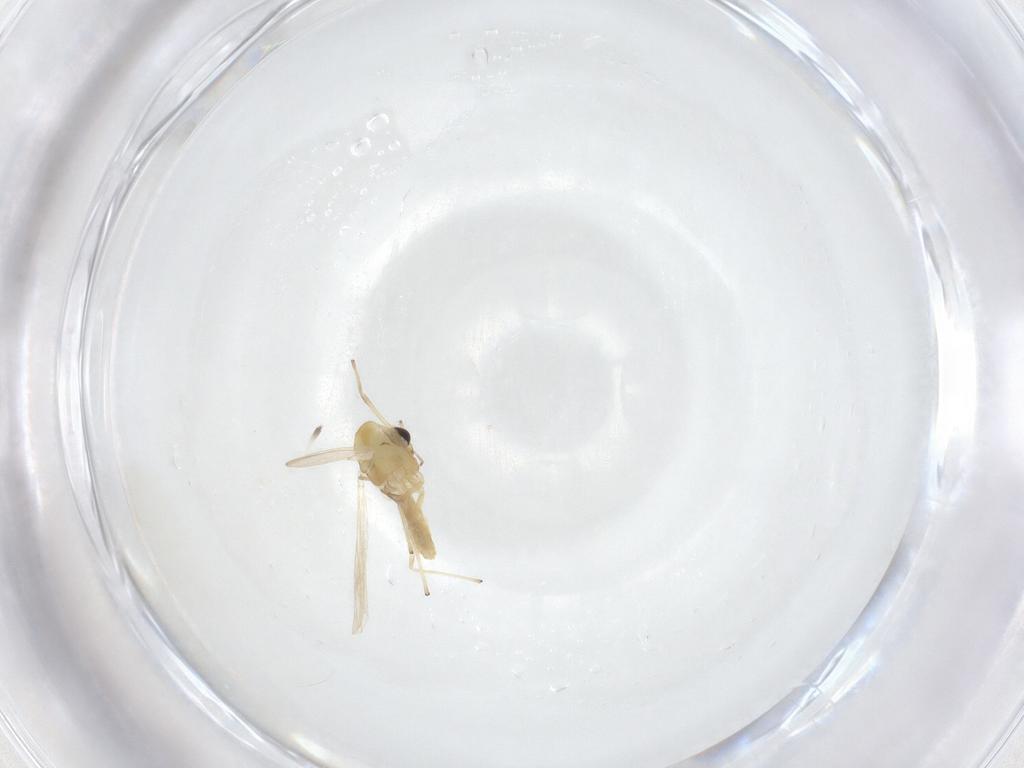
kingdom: Animalia
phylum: Arthropoda
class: Insecta
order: Diptera
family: Chironomidae
